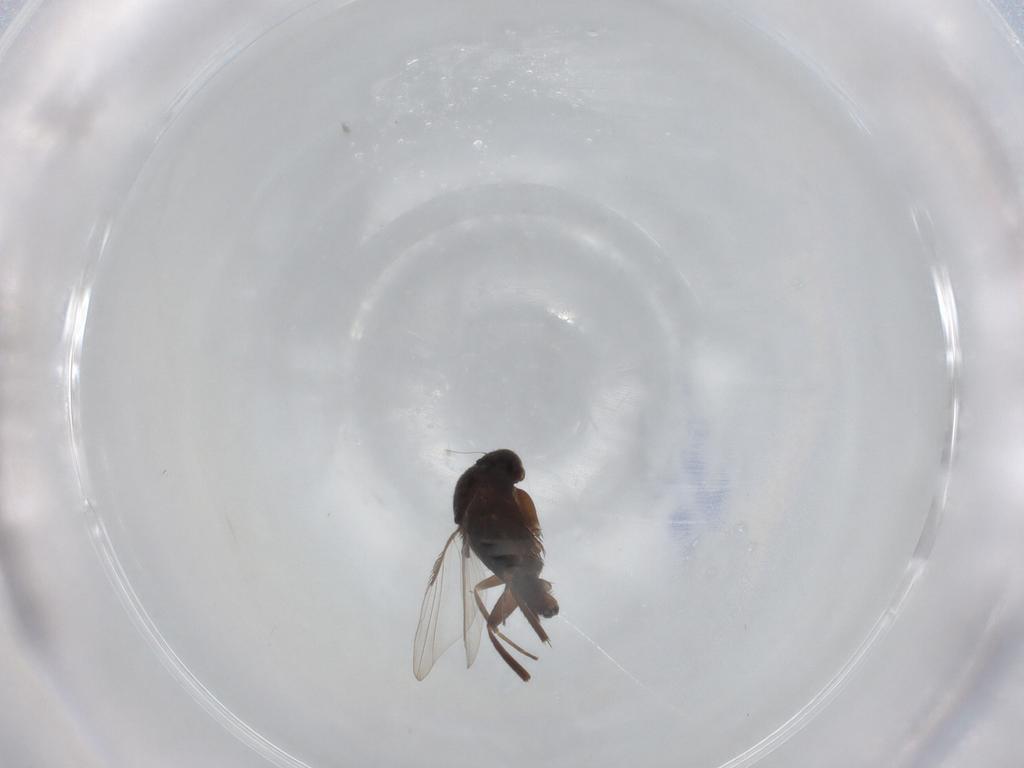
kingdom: Animalia
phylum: Arthropoda
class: Insecta
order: Diptera
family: Phoridae
